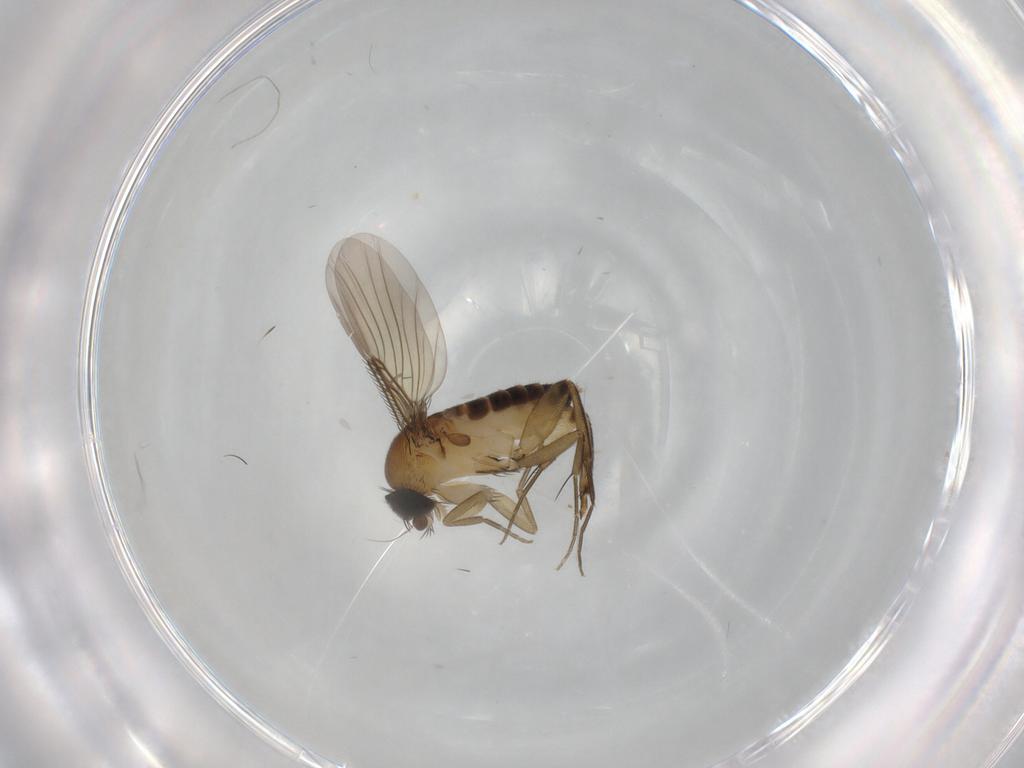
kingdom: Animalia
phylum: Arthropoda
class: Insecta
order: Diptera
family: Phoridae
